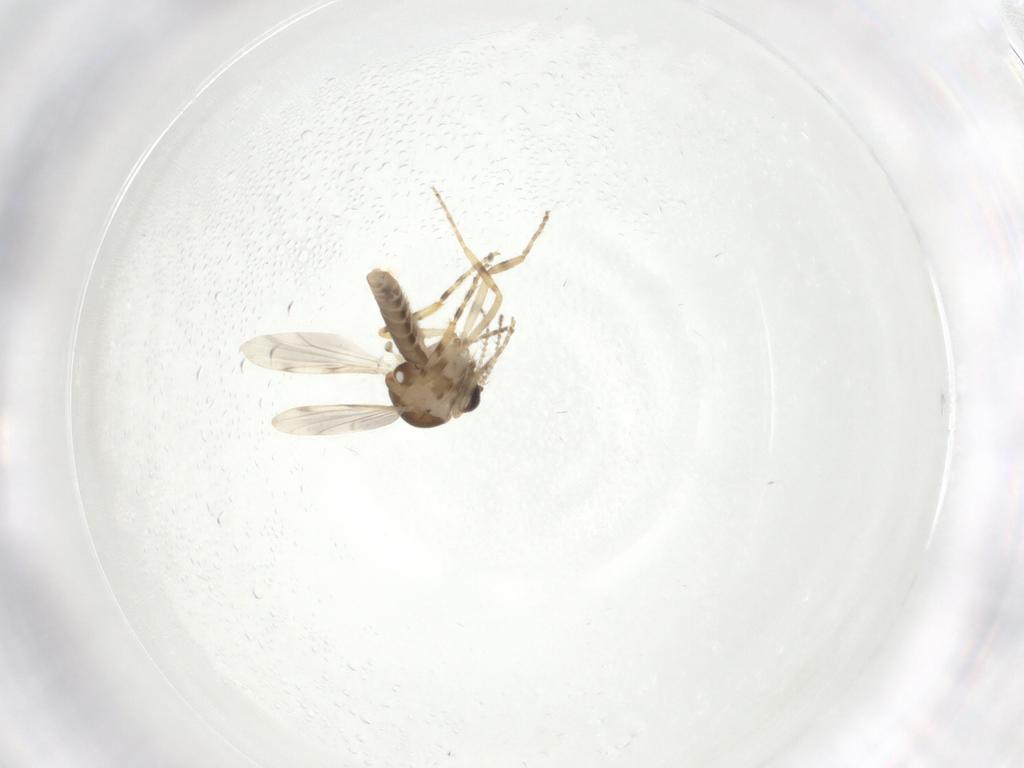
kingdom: Animalia
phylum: Arthropoda
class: Insecta
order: Diptera
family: Ceratopogonidae
